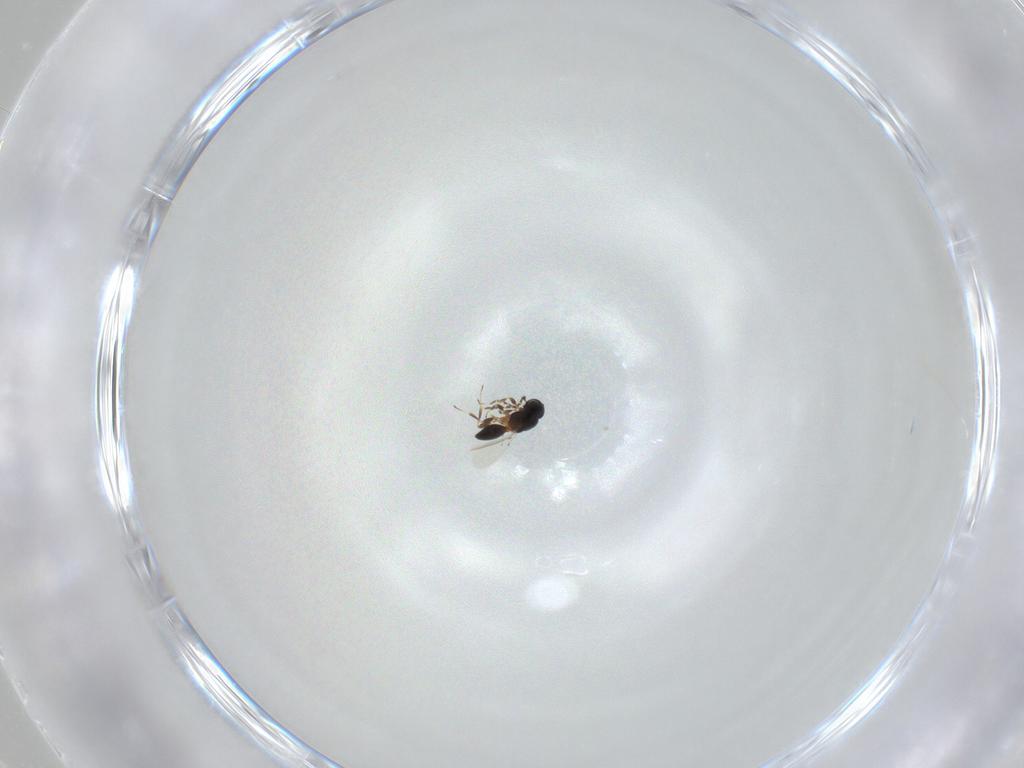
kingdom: Animalia
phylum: Arthropoda
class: Insecta
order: Hymenoptera
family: Platygastridae
